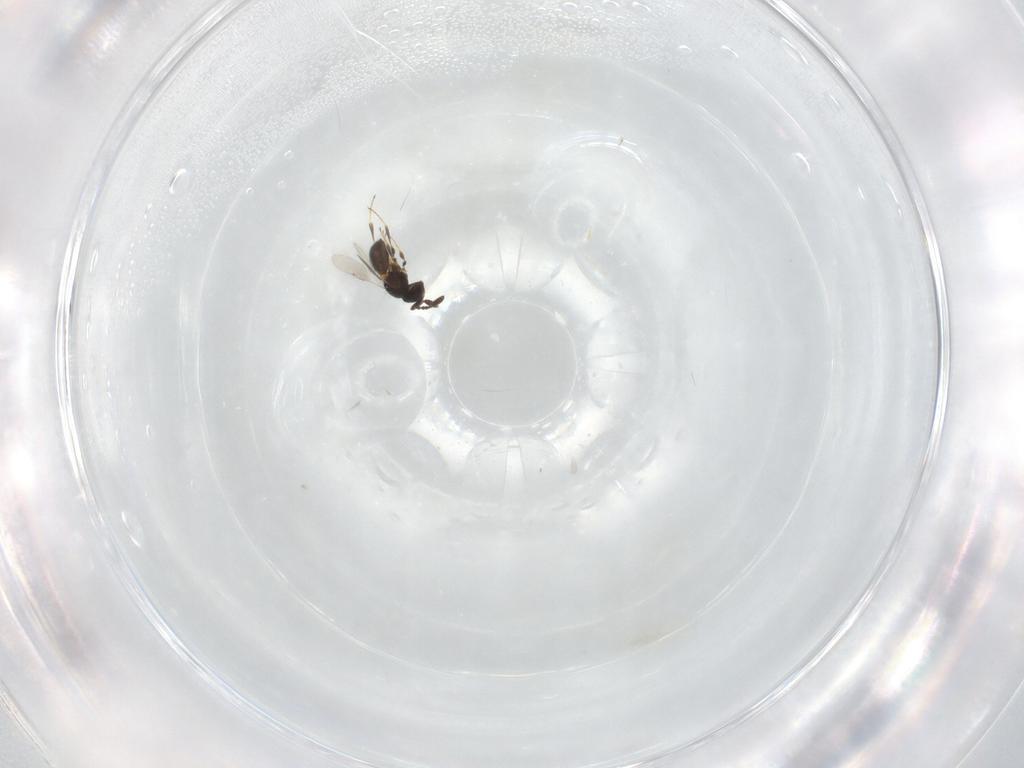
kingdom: Animalia
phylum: Arthropoda
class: Insecta
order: Hymenoptera
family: Scelionidae
